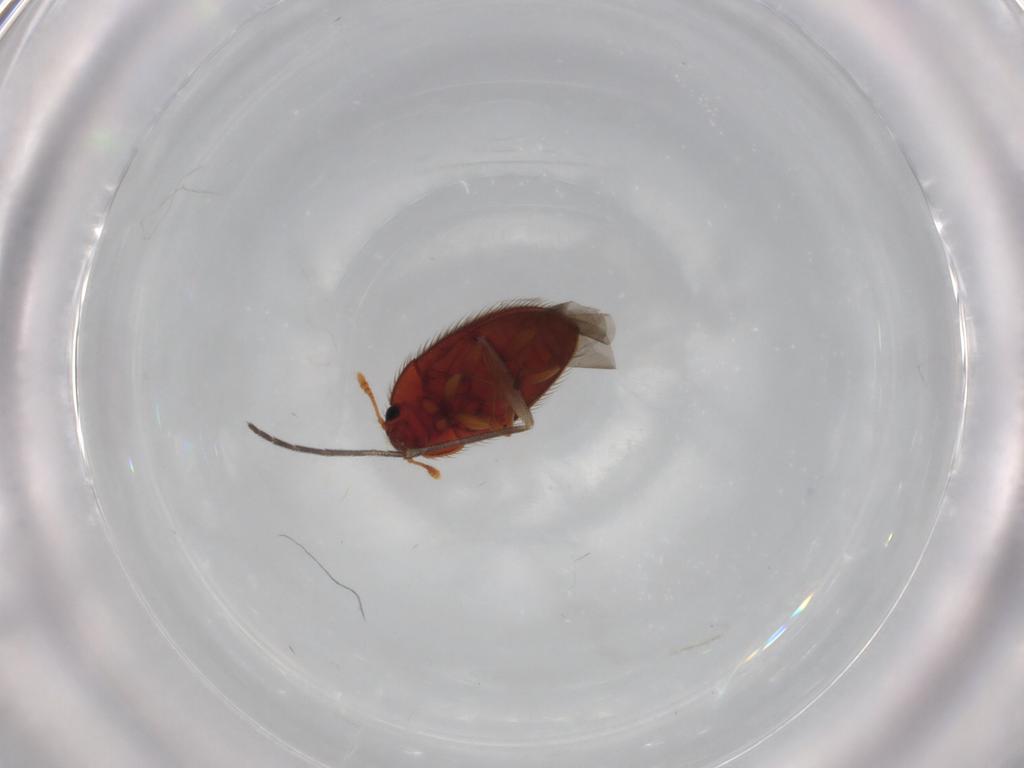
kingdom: Animalia
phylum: Arthropoda
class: Insecta
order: Coleoptera
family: Biphyllidae
